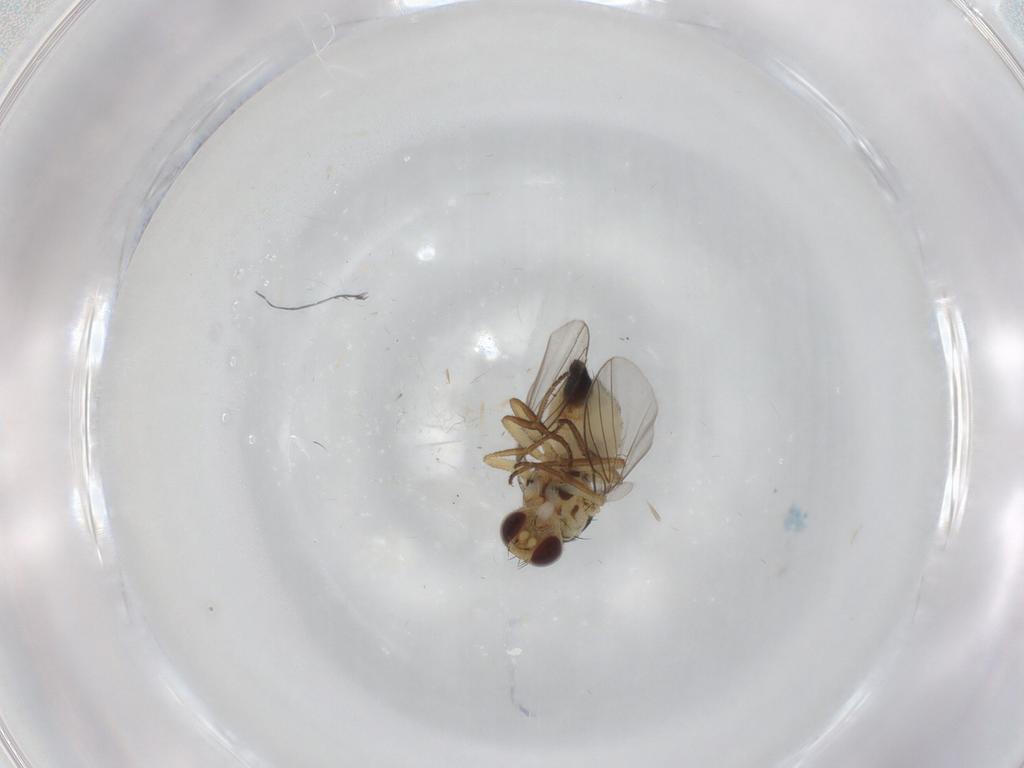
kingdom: Animalia
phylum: Arthropoda
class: Insecta
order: Diptera
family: Agromyzidae
